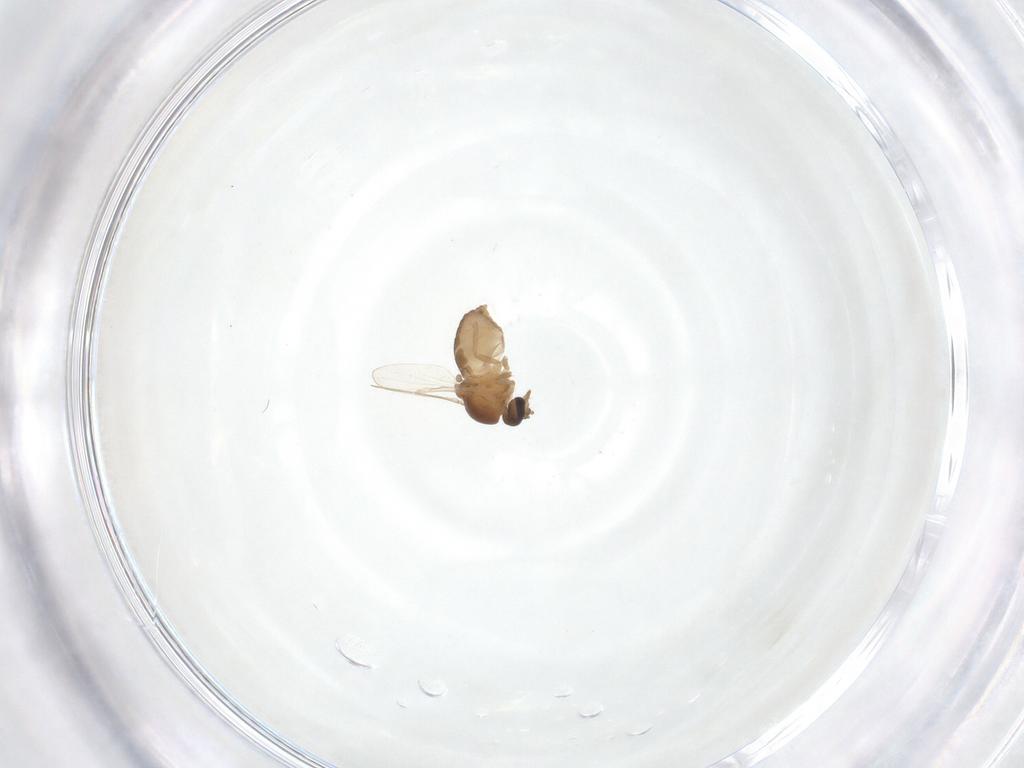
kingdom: Animalia
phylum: Arthropoda
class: Insecta
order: Diptera
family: Ceratopogonidae
